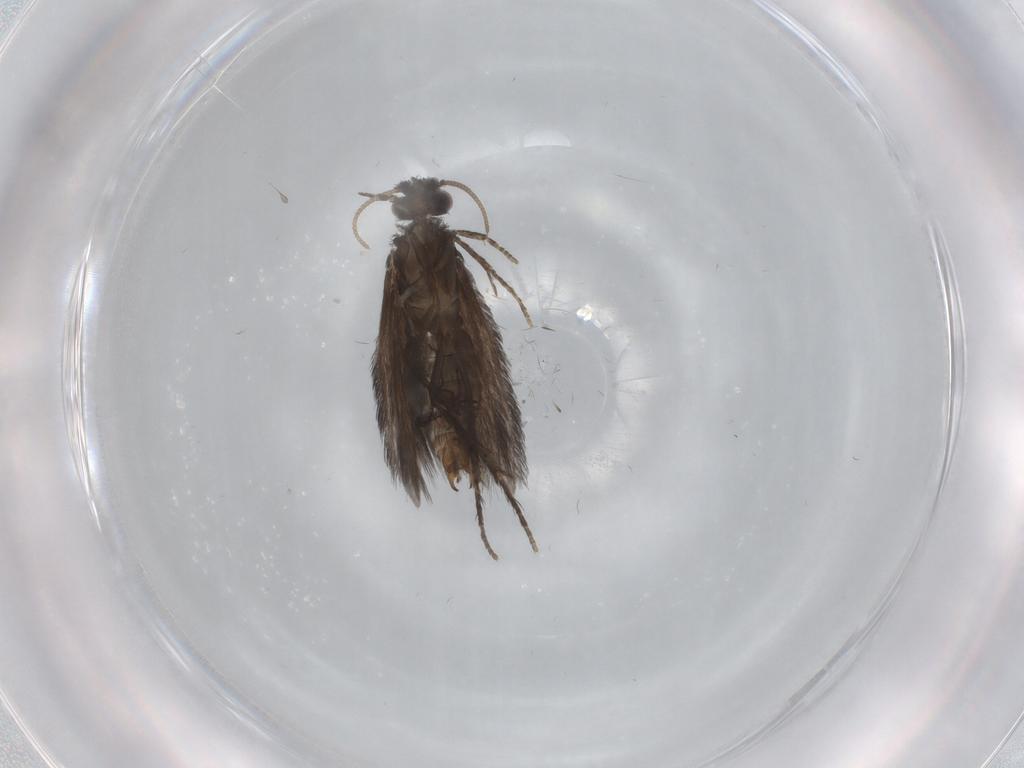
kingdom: Animalia
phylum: Arthropoda
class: Insecta
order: Trichoptera
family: Hydroptilidae
